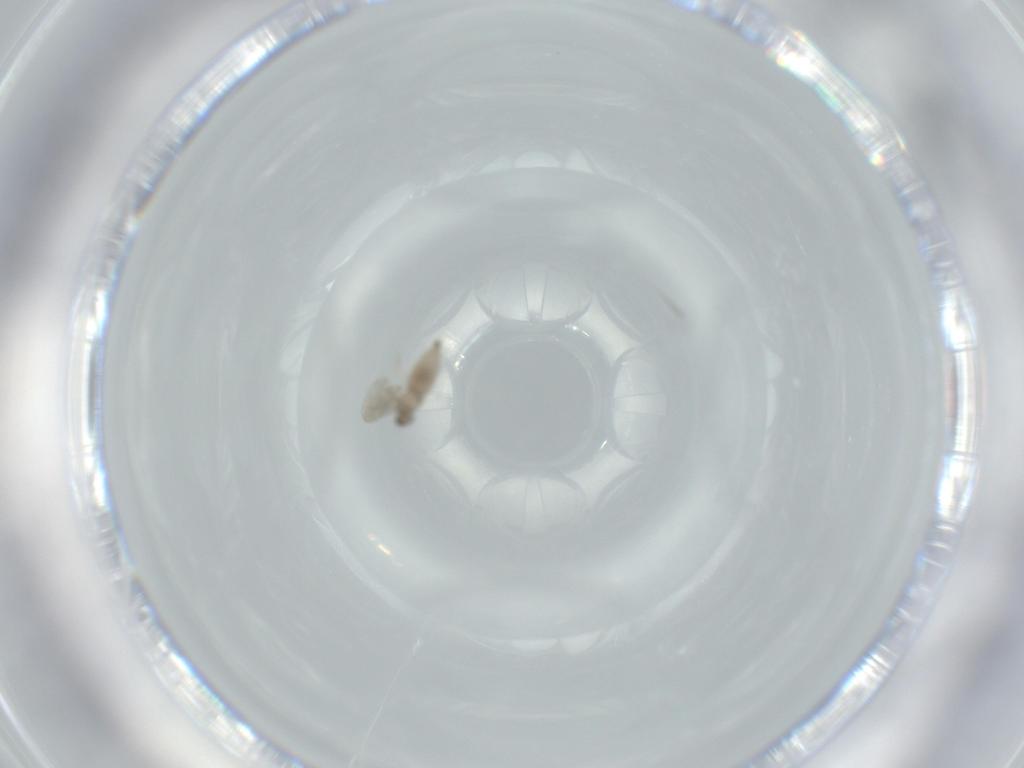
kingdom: Animalia
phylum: Arthropoda
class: Insecta
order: Diptera
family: Cecidomyiidae
